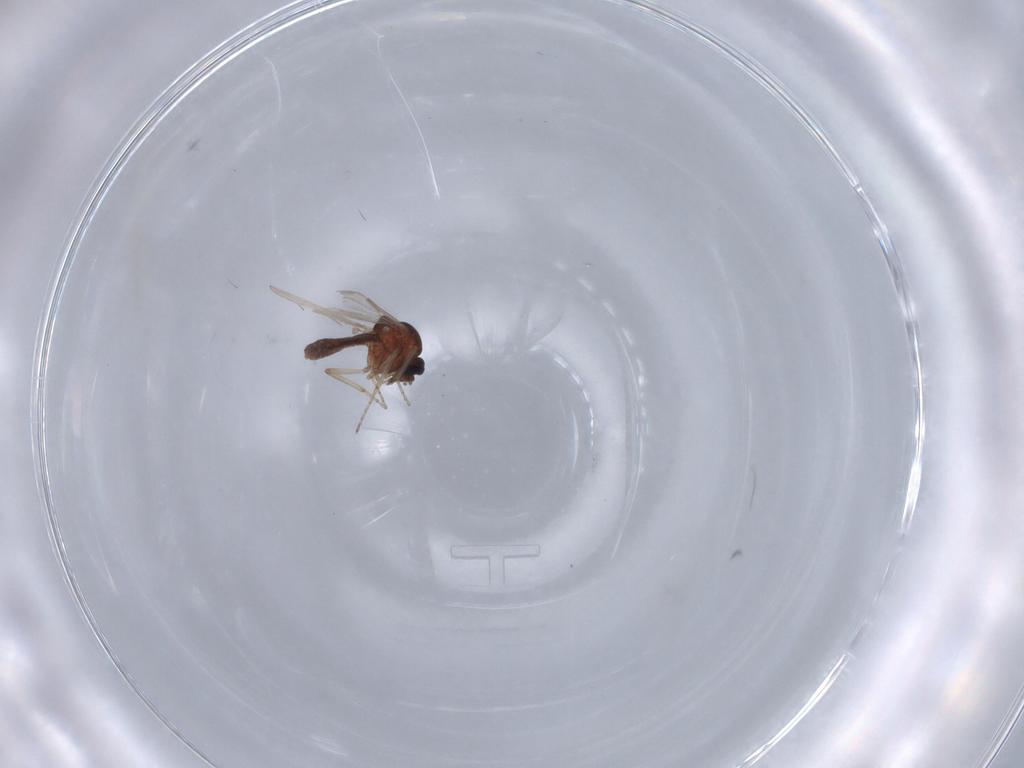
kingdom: Animalia
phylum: Arthropoda
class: Insecta
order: Diptera
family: Ceratopogonidae
